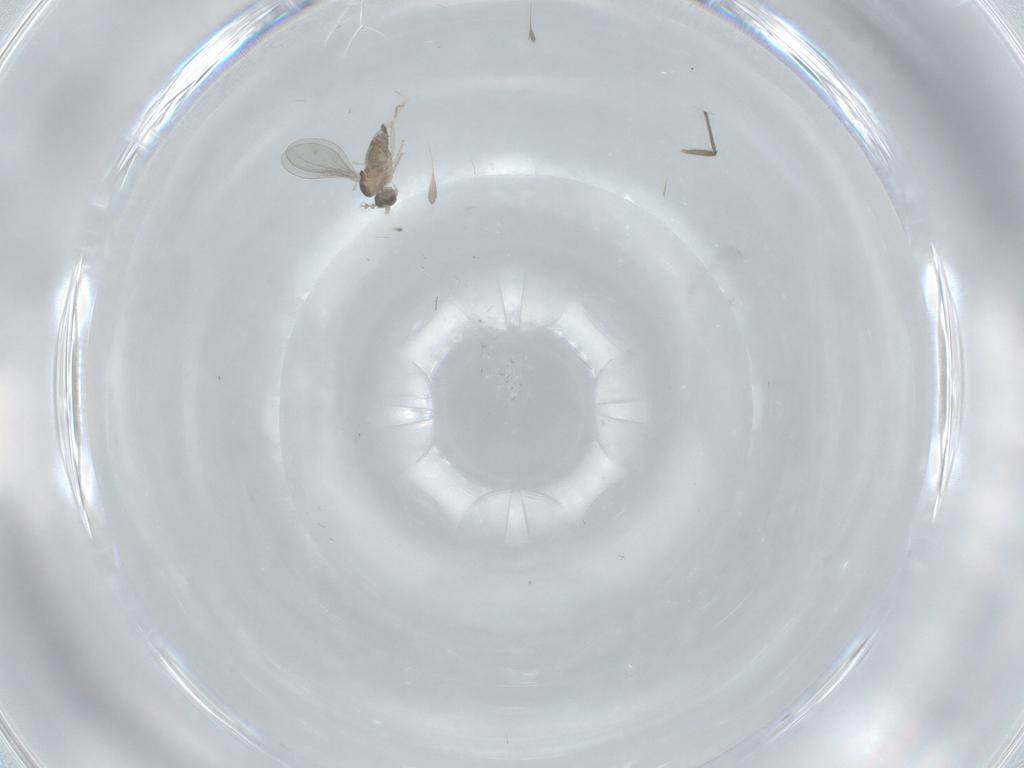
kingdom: Animalia
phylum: Arthropoda
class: Insecta
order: Diptera
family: Cecidomyiidae
